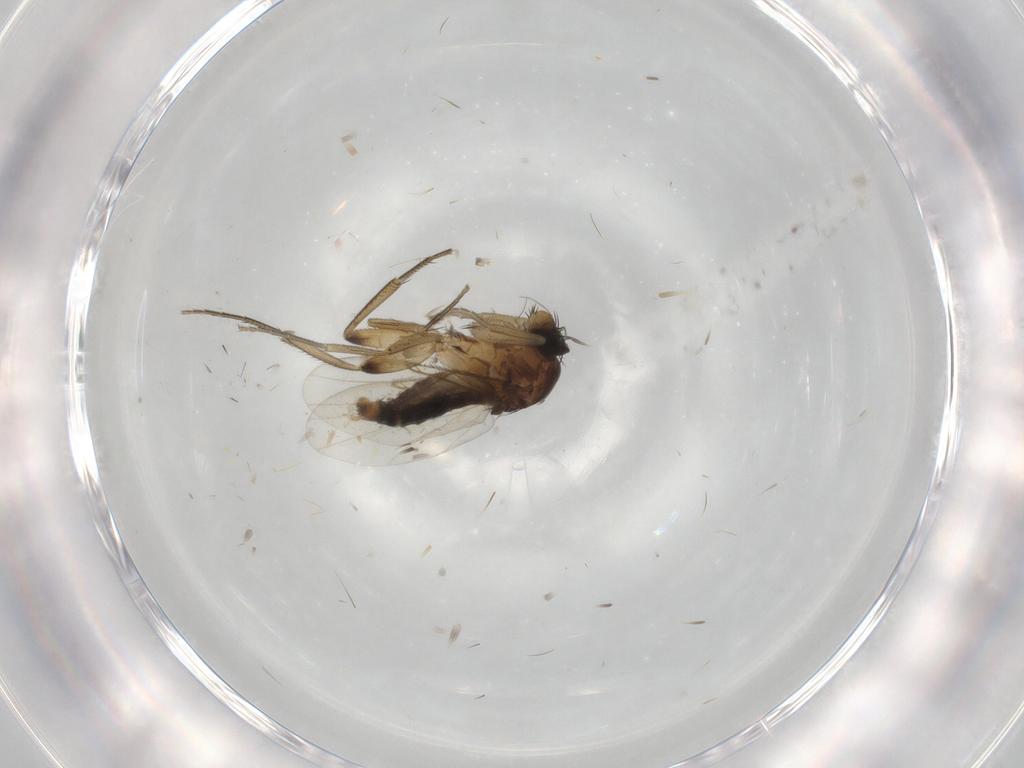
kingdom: Animalia
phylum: Arthropoda
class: Insecta
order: Diptera
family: Phoridae
